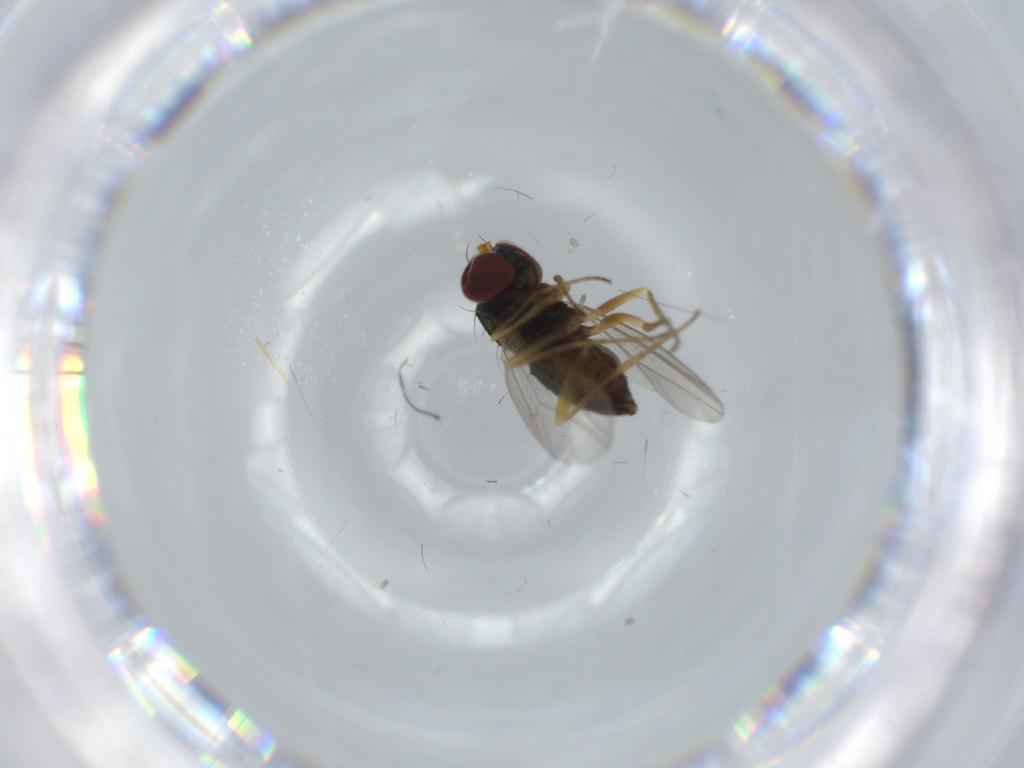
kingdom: Animalia
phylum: Arthropoda
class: Insecta
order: Diptera
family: Dolichopodidae
